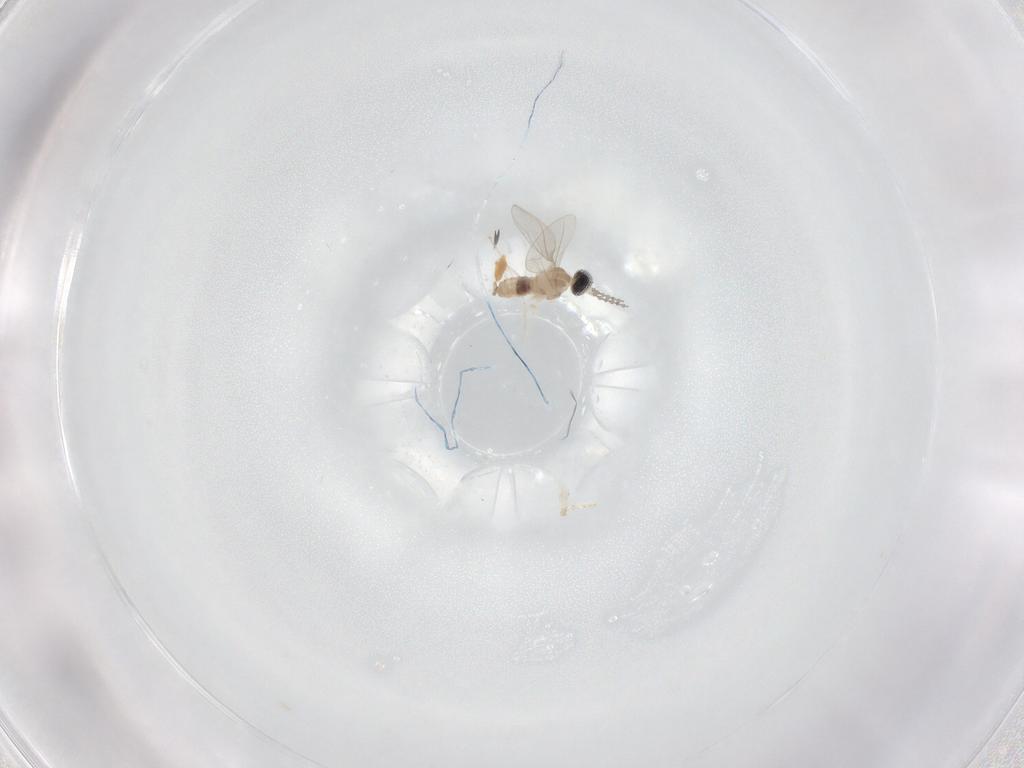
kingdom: Animalia
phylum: Arthropoda
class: Insecta
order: Diptera
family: Cecidomyiidae
